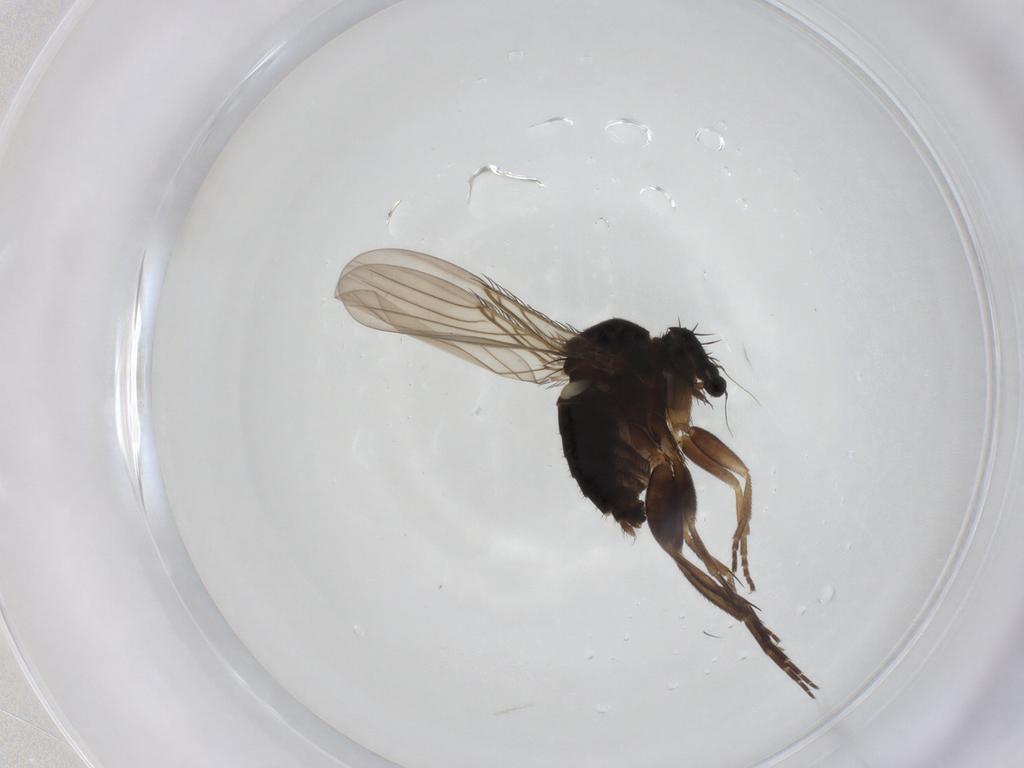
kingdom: Animalia
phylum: Arthropoda
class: Insecta
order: Diptera
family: Phoridae
